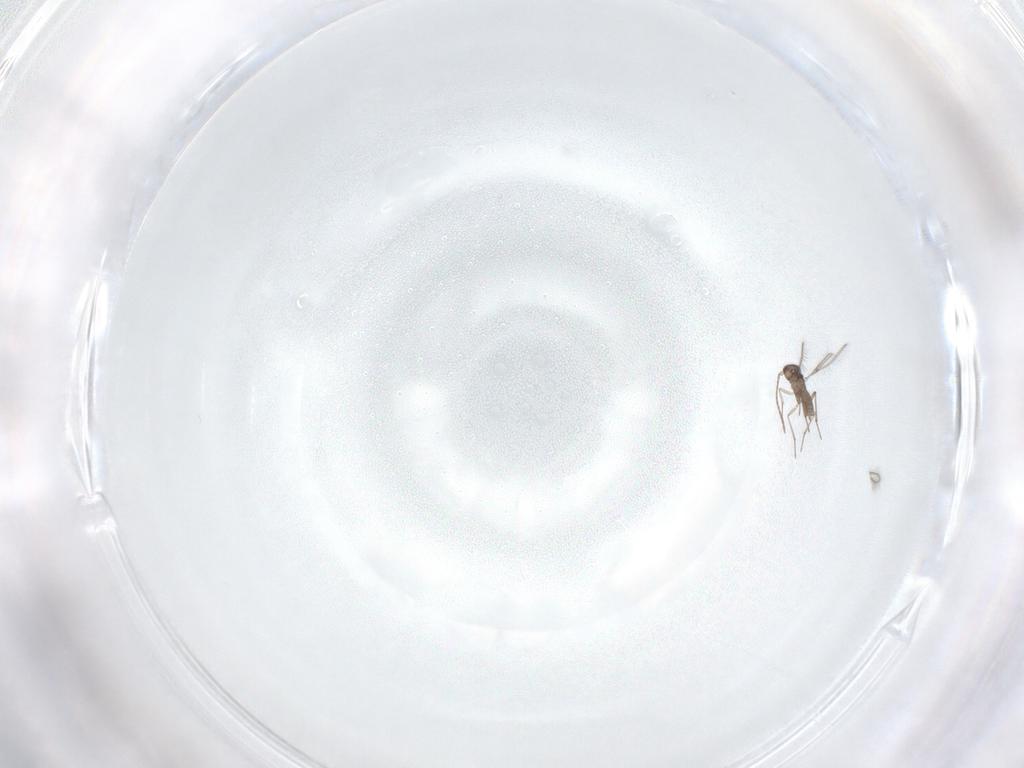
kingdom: Animalia
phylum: Arthropoda
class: Insecta
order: Hymenoptera
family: Mymaridae
